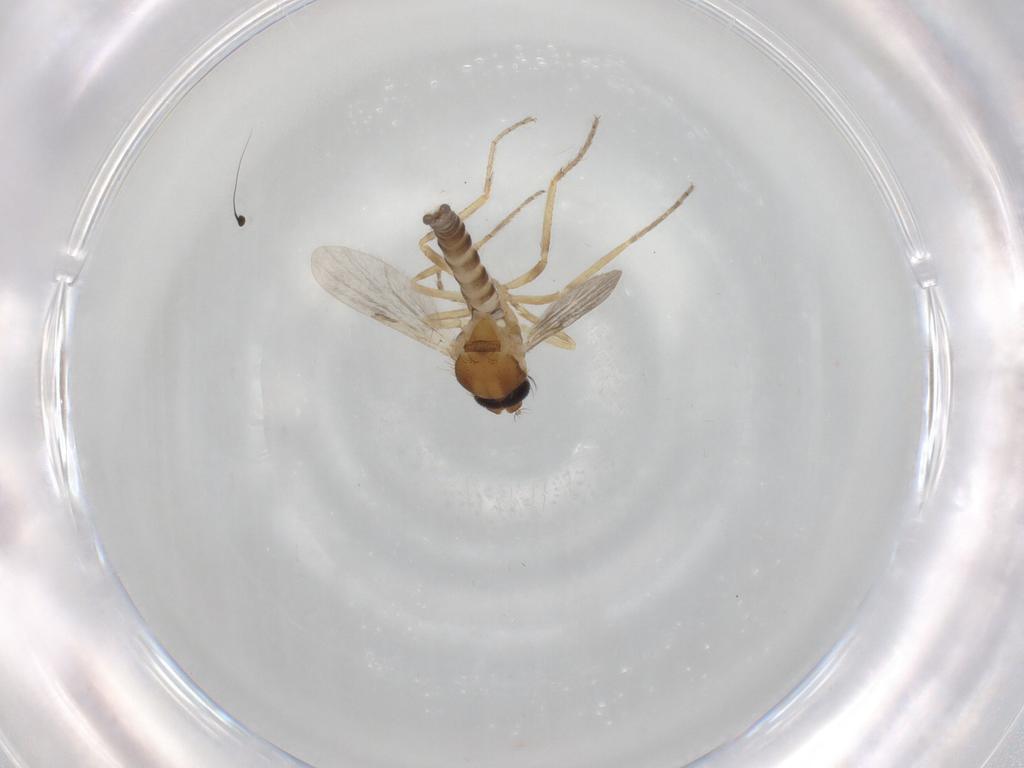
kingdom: Animalia
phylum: Arthropoda
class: Insecta
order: Diptera
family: Ceratopogonidae
